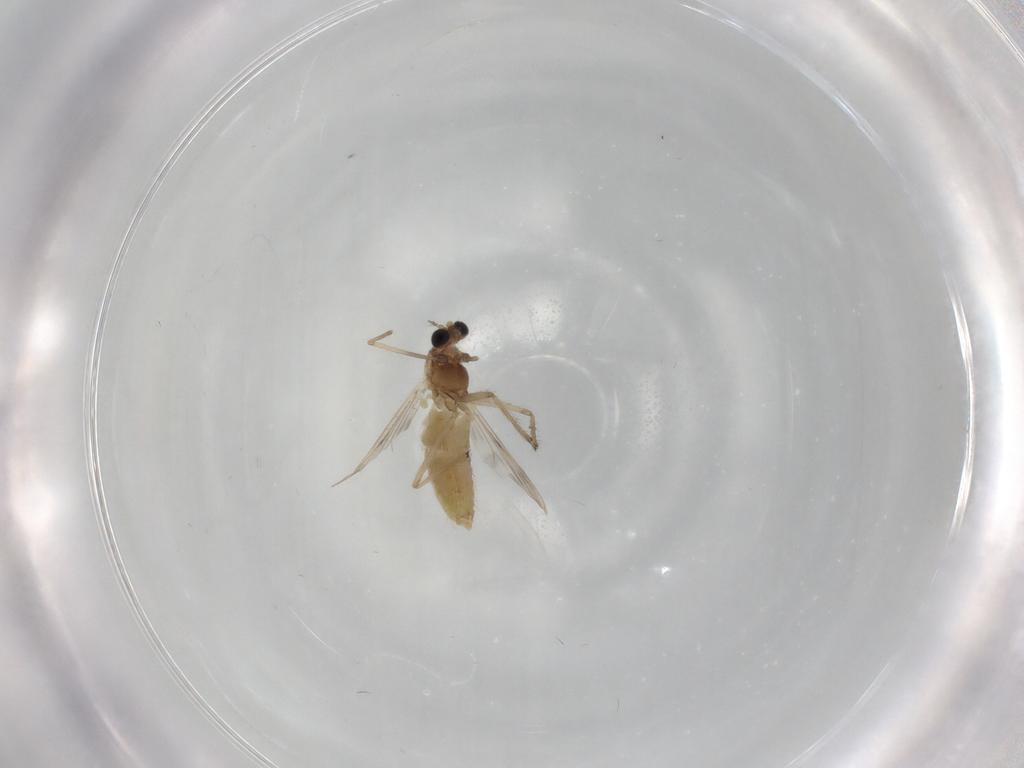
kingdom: Animalia
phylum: Arthropoda
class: Insecta
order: Diptera
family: Chironomidae
